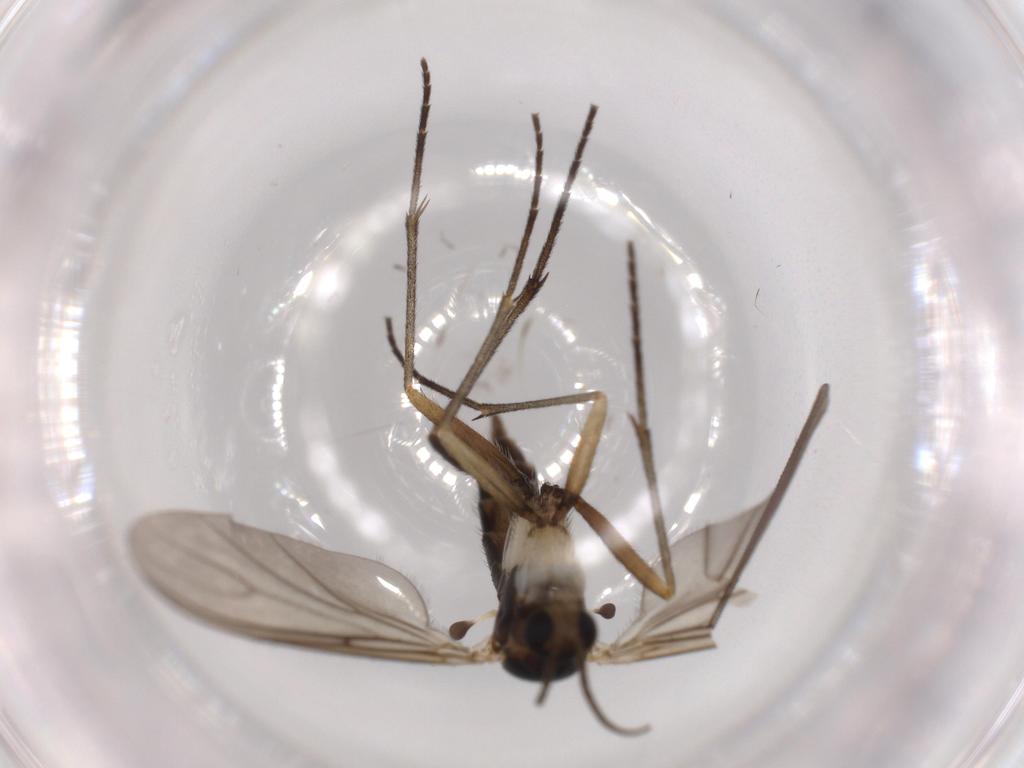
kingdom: Animalia
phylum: Arthropoda
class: Insecta
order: Diptera
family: Sciaridae
